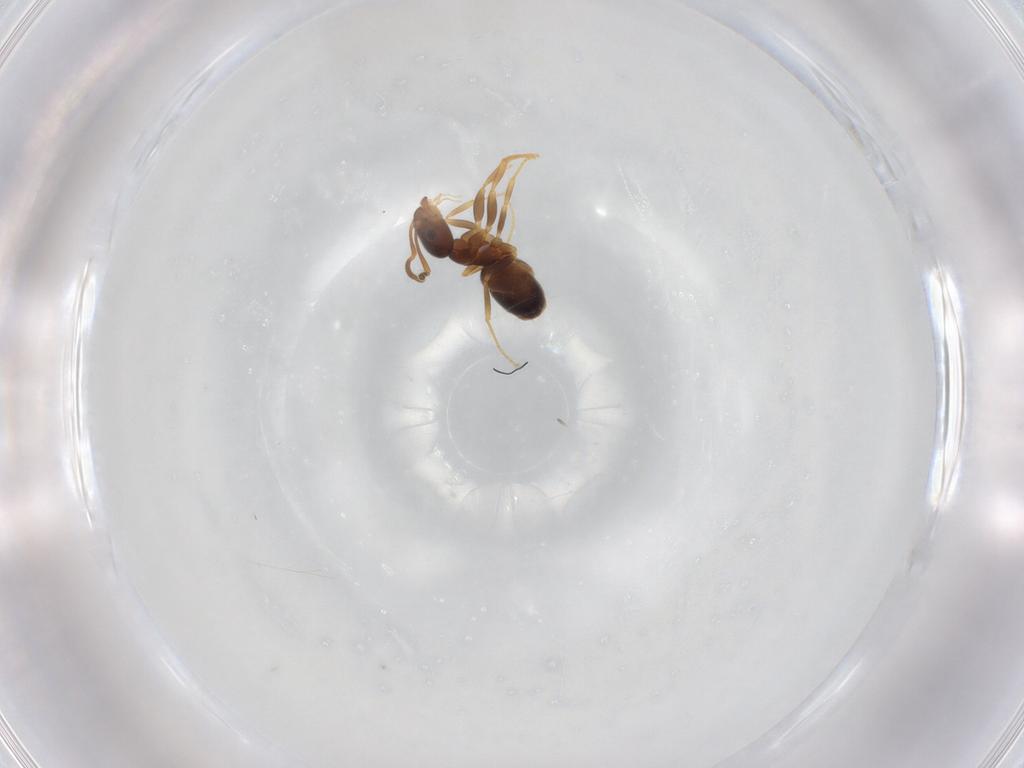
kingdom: Animalia
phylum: Arthropoda
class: Insecta
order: Hymenoptera
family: Formicidae
